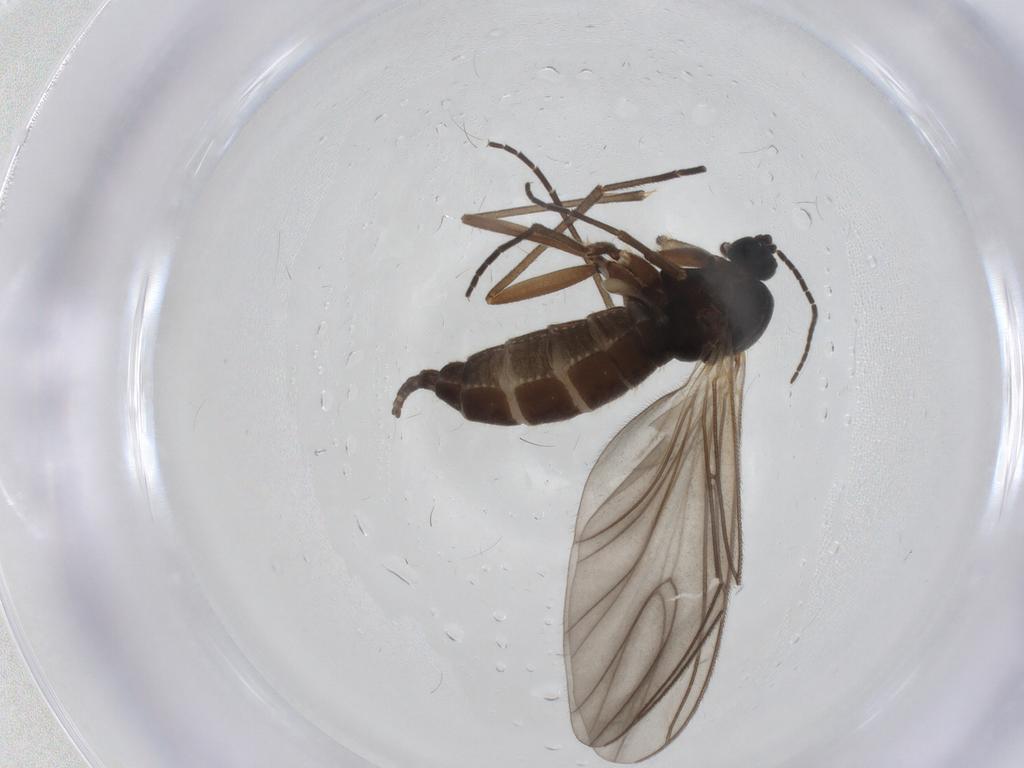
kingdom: Animalia
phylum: Arthropoda
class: Insecta
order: Diptera
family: Sciaridae
